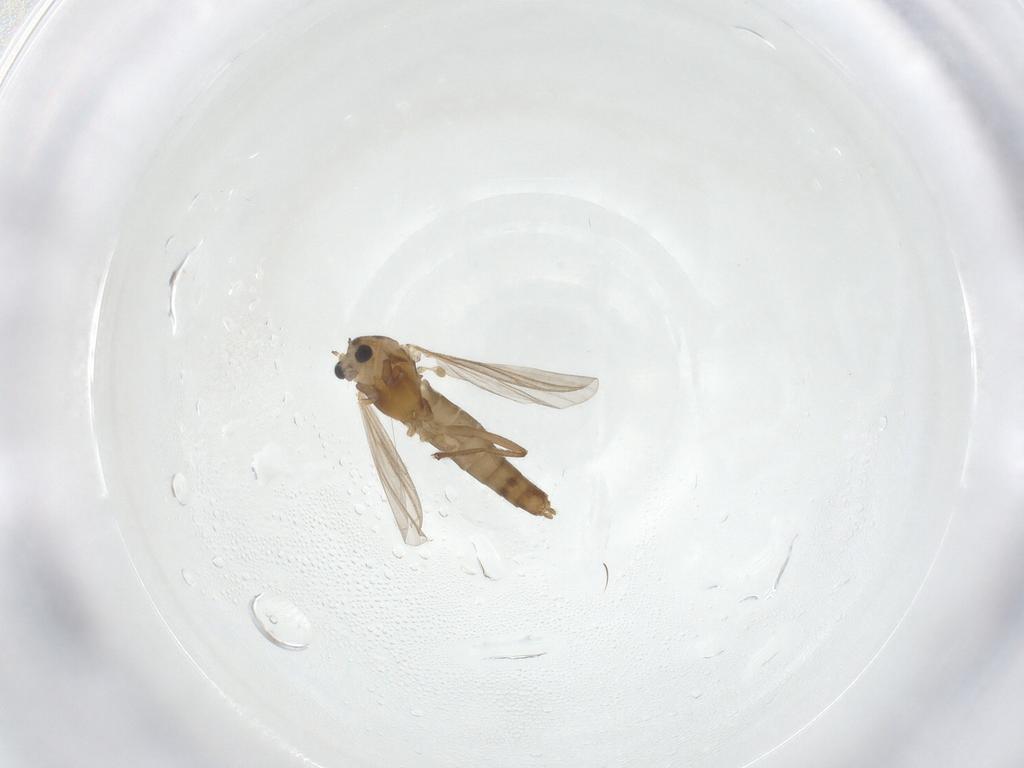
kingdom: Animalia
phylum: Arthropoda
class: Insecta
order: Diptera
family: Chironomidae
